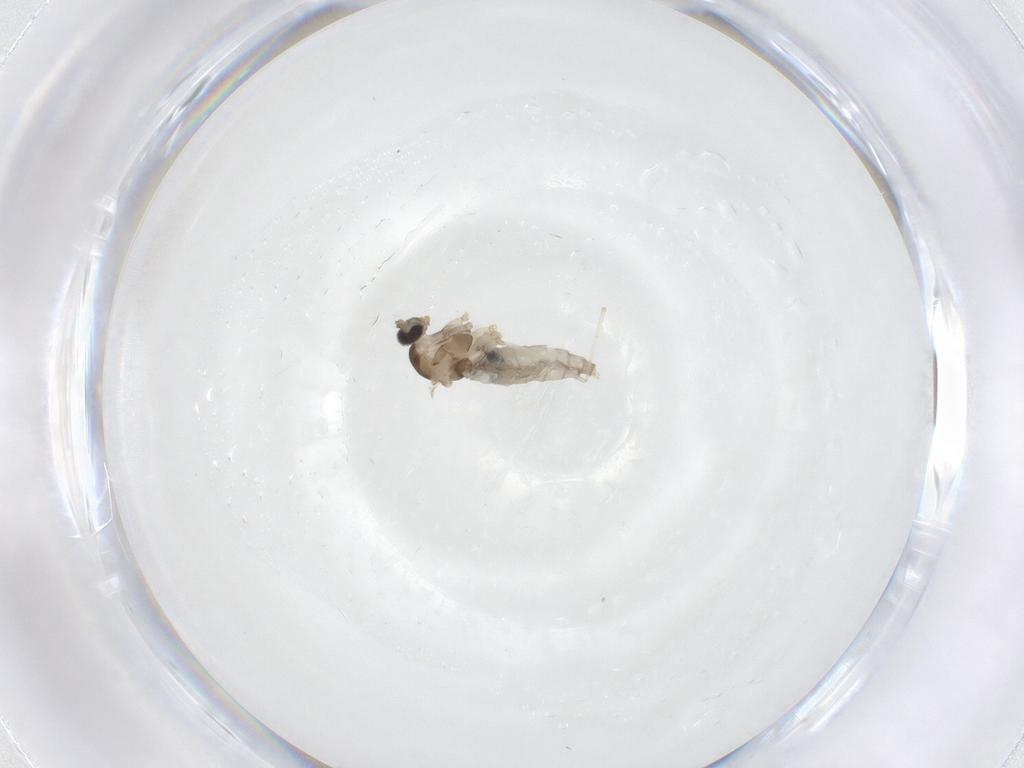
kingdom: Animalia
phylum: Arthropoda
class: Insecta
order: Diptera
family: Cecidomyiidae
